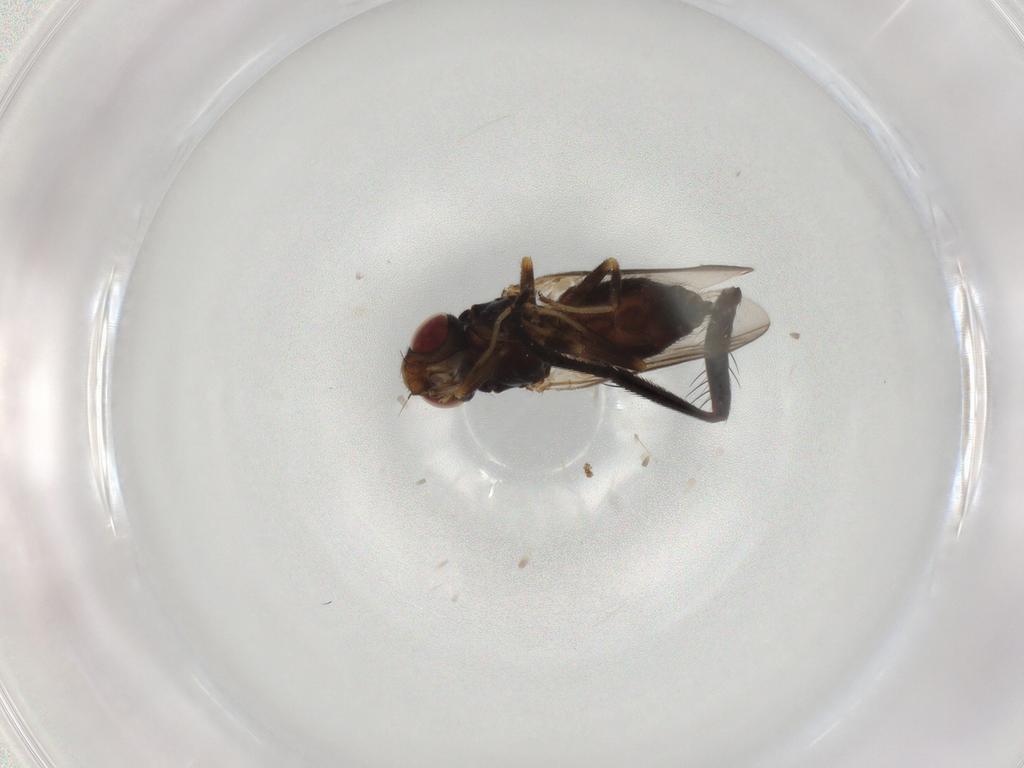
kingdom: Animalia
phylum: Arthropoda
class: Insecta
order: Diptera
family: Chloropidae
